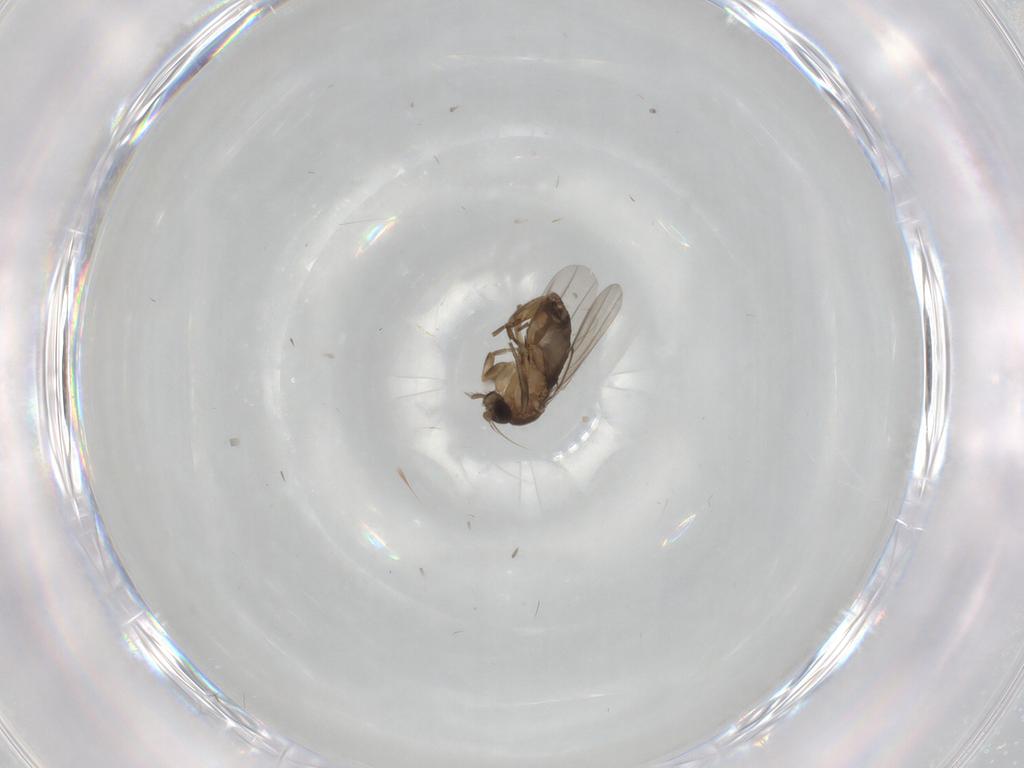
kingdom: Animalia
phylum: Arthropoda
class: Insecta
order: Diptera
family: Phoridae
